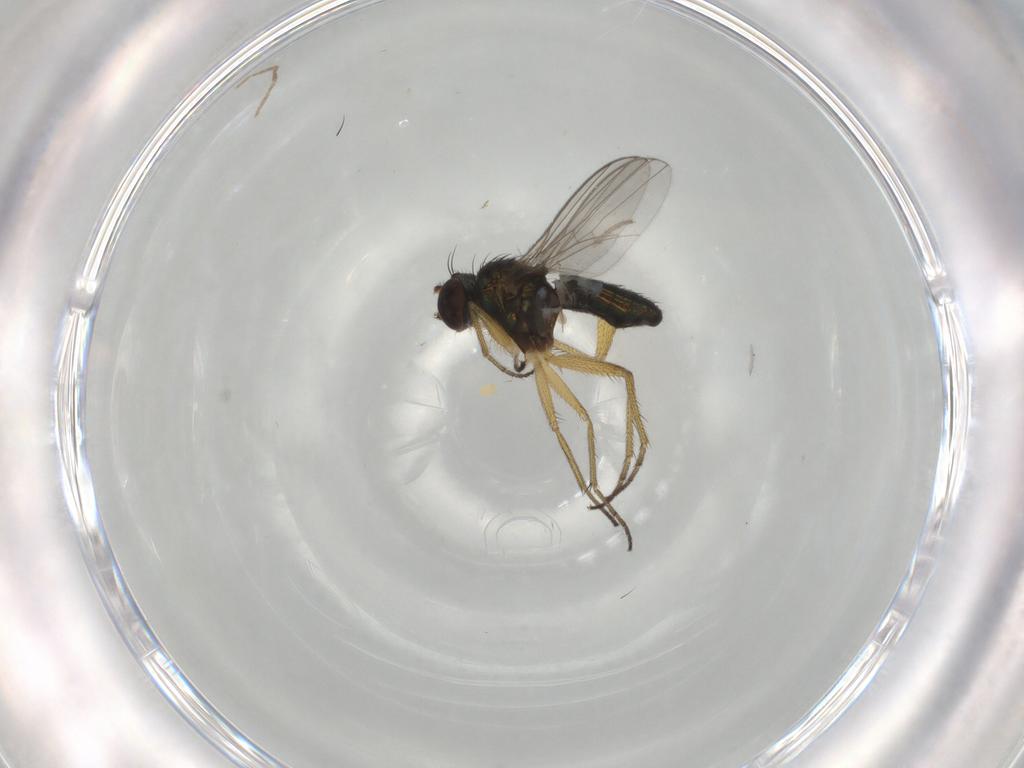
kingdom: Animalia
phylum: Arthropoda
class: Insecta
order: Diptera
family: Dolichopodidae
